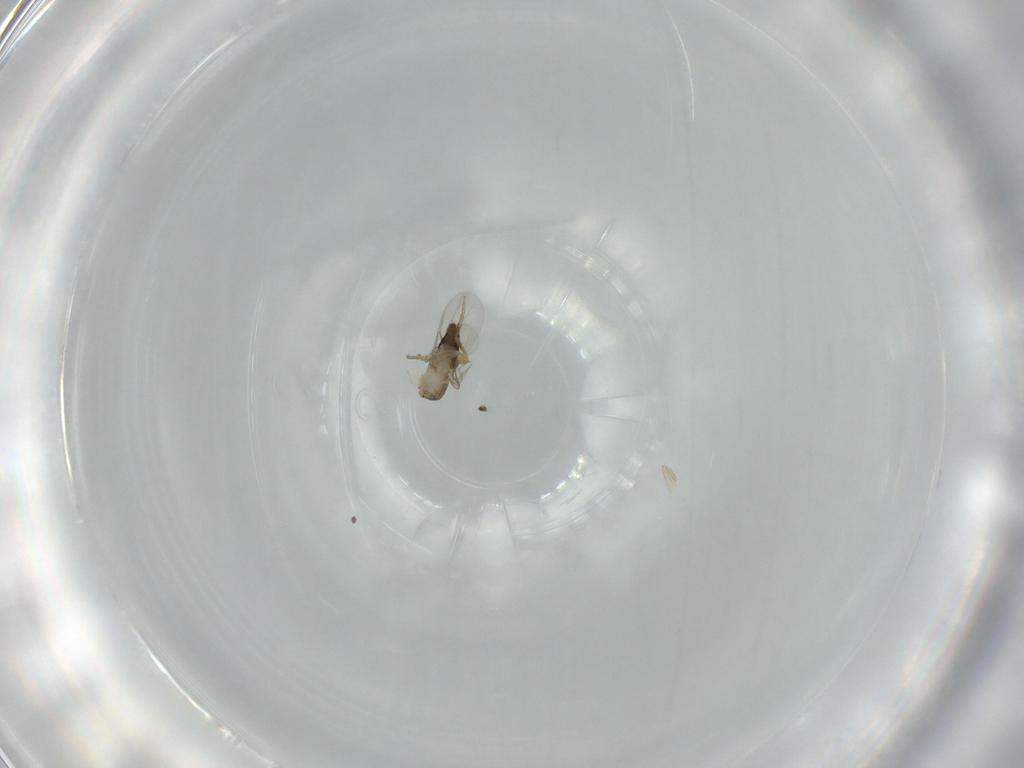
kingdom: Animalia
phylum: Arthropoda
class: Insecta
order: Diptera
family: Phoridae
